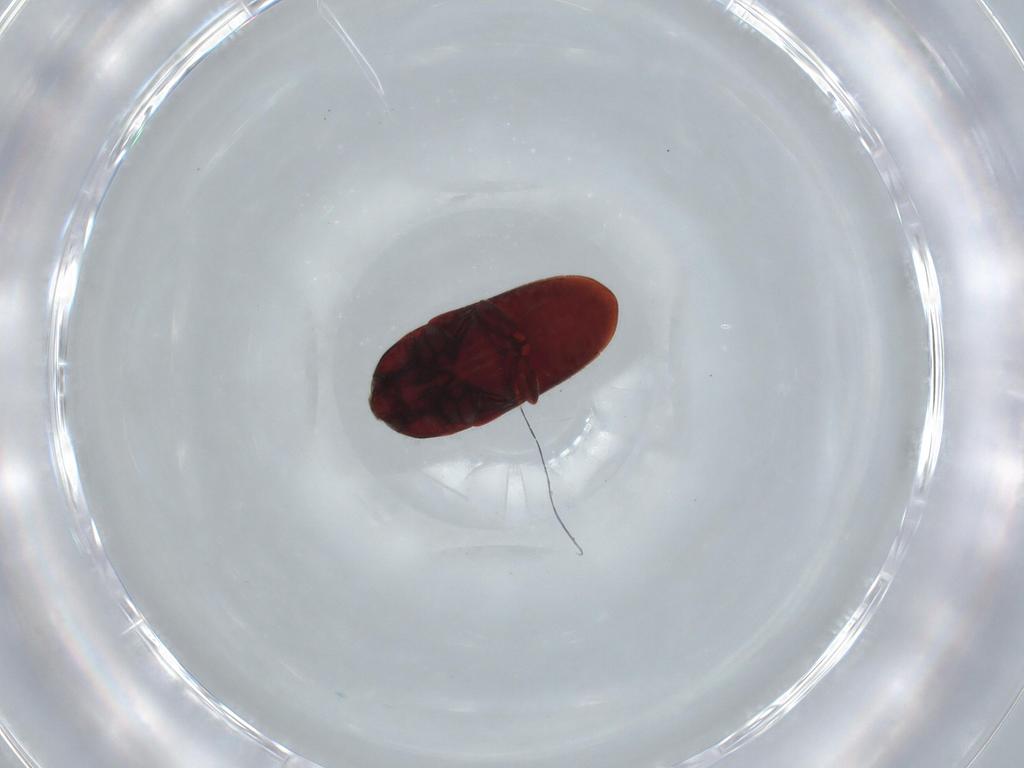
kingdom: Animalia
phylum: Arthropoda
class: Insecta
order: Coleoptera
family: Throscidae
